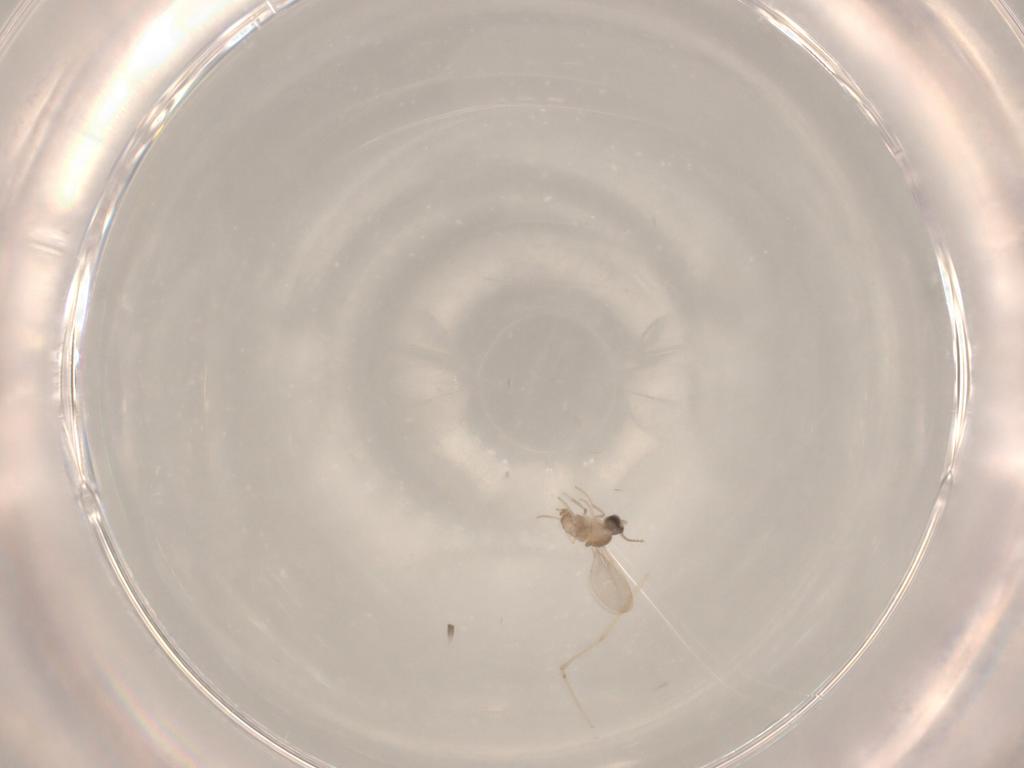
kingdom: Animalia
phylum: Arthropoda
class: Insecta
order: Diptera
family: Cecidomyiidae
